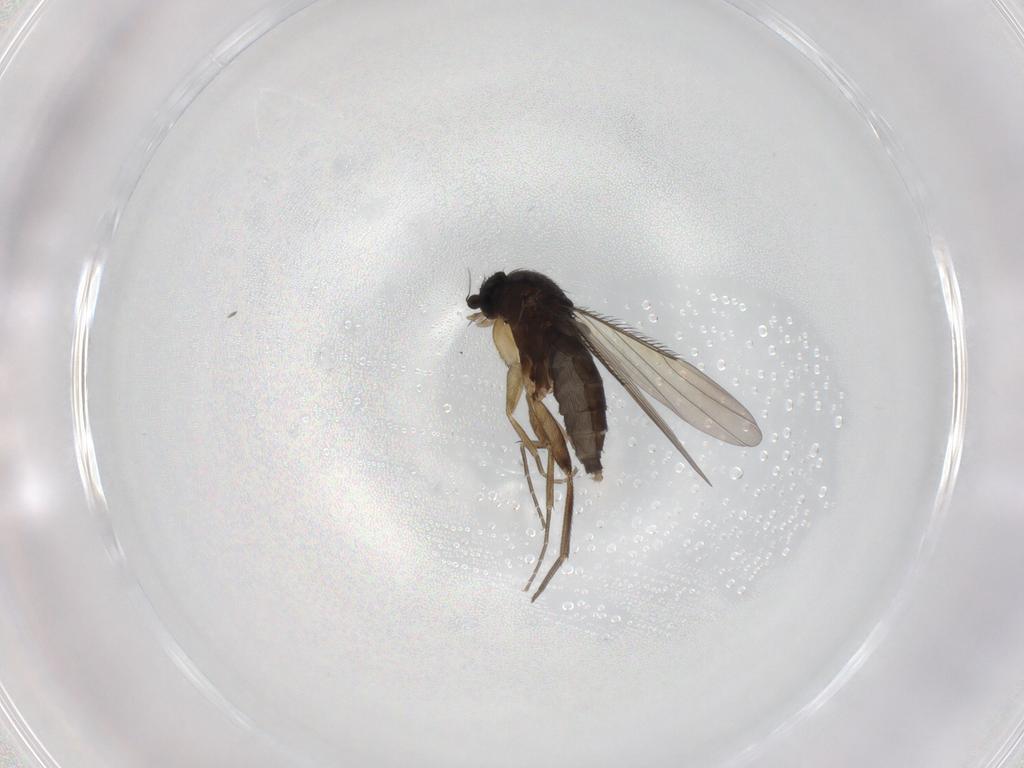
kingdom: Animalia
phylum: Arthropoda
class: Insecta
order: Diptera
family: Phoridae
